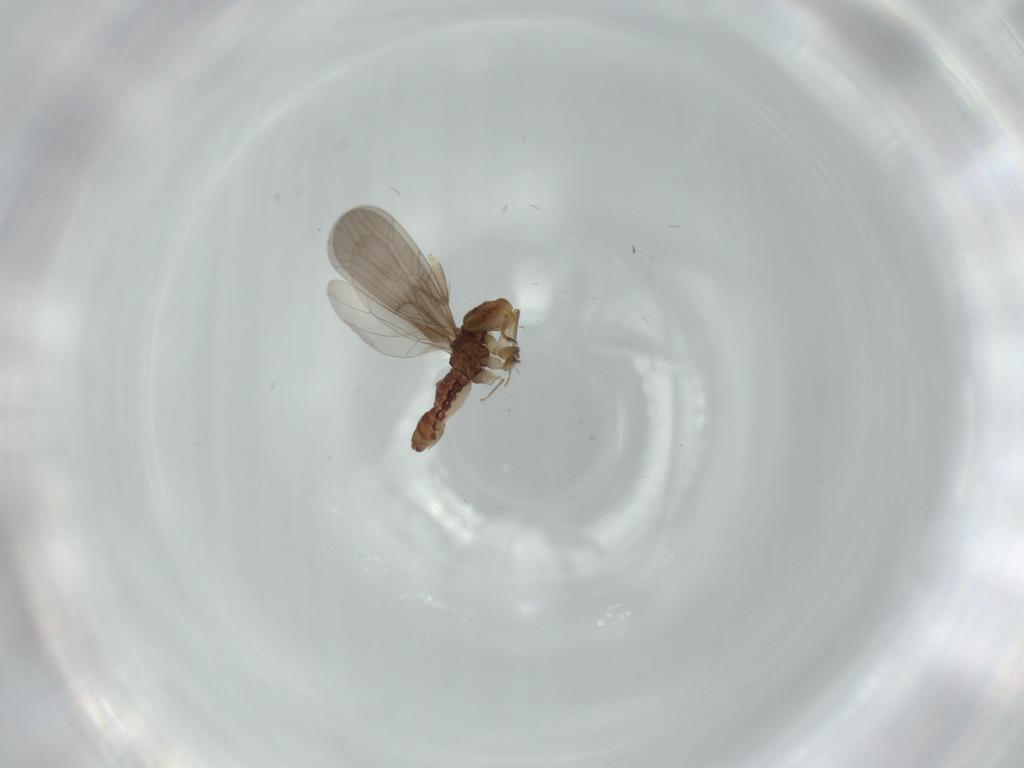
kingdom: Animalia
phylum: Arthropoda
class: Insecta
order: Psocodea
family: Lepidopsocidae
